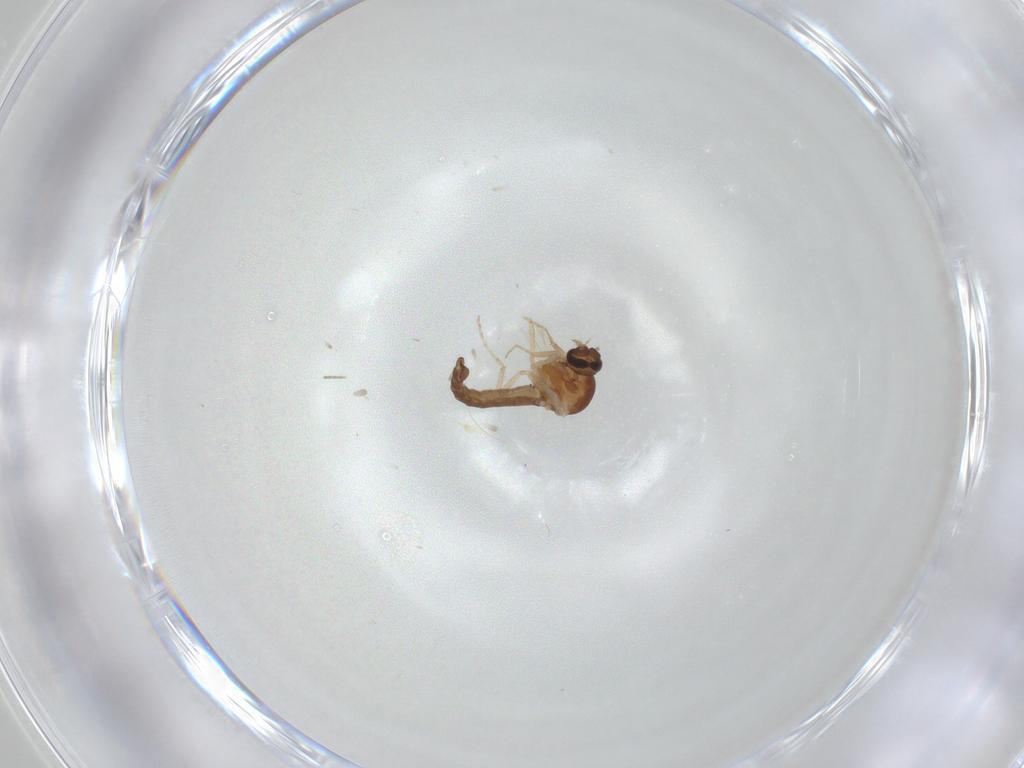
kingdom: Animalia
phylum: Arthropoda
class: Insecta
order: Diptera
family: Ceratopogonidae
